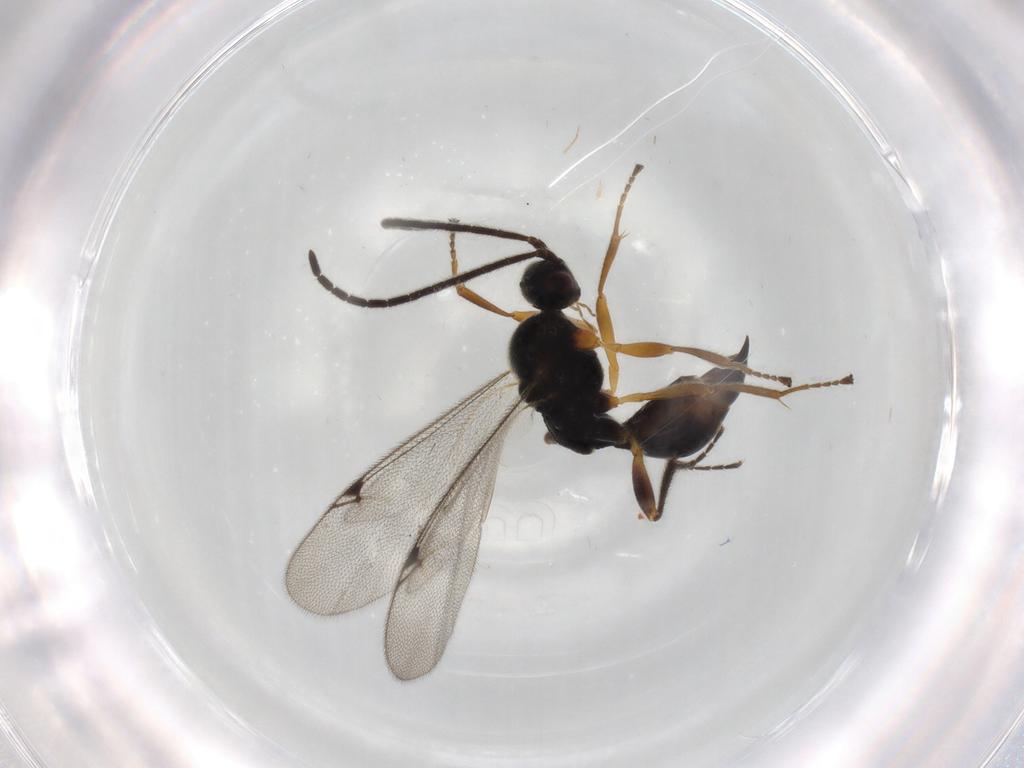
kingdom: Animalia
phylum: Arthropoda
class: Insecta
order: Hymenoptera
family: Proctotrupidae
